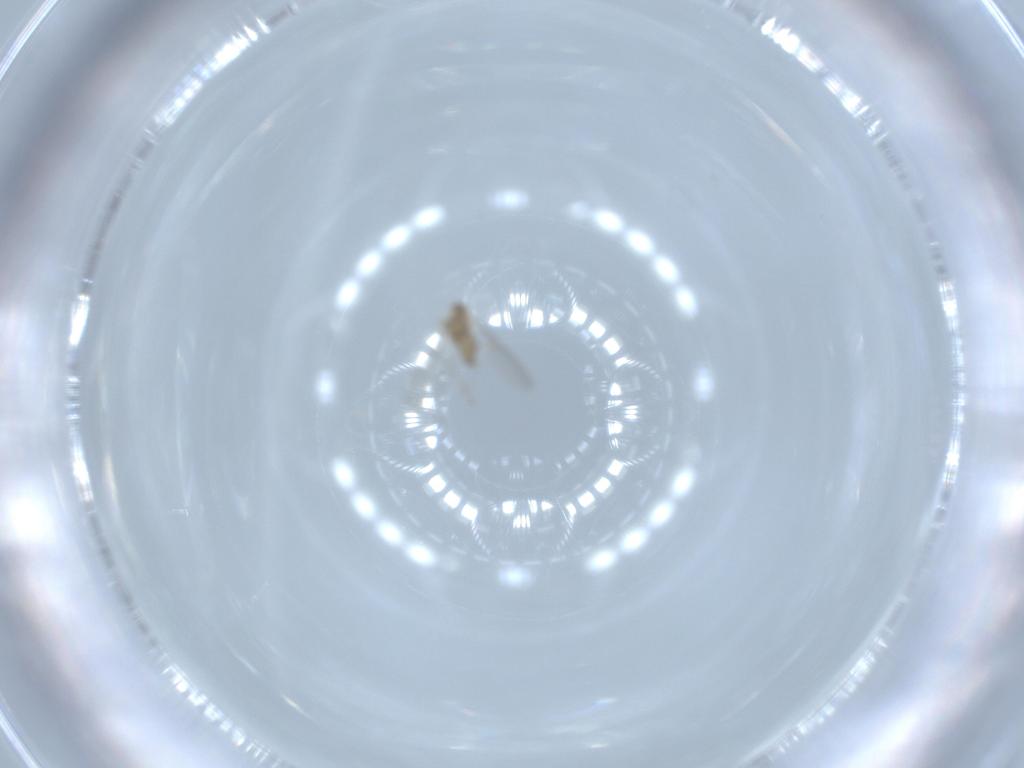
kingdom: Animalia
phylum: Arthropoda
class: Insecta
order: Diptera
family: Cecidomyiidae
